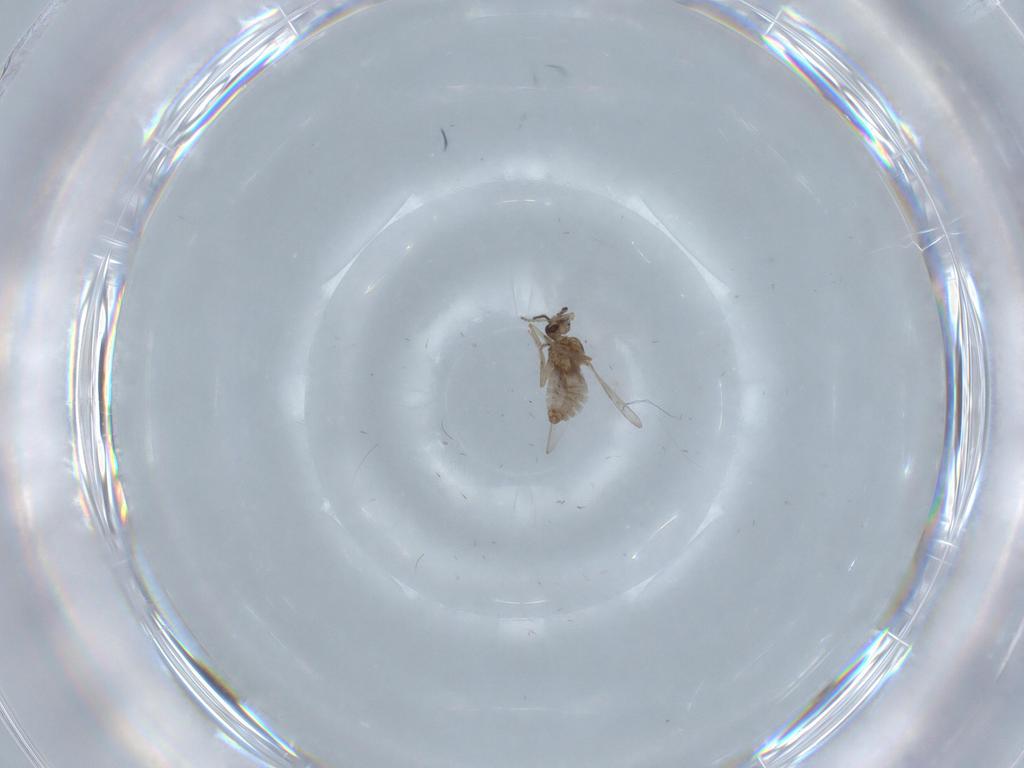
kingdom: Animalia
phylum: Arthropoda
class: Insecta
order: Diptera
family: Ceratopogonidae
